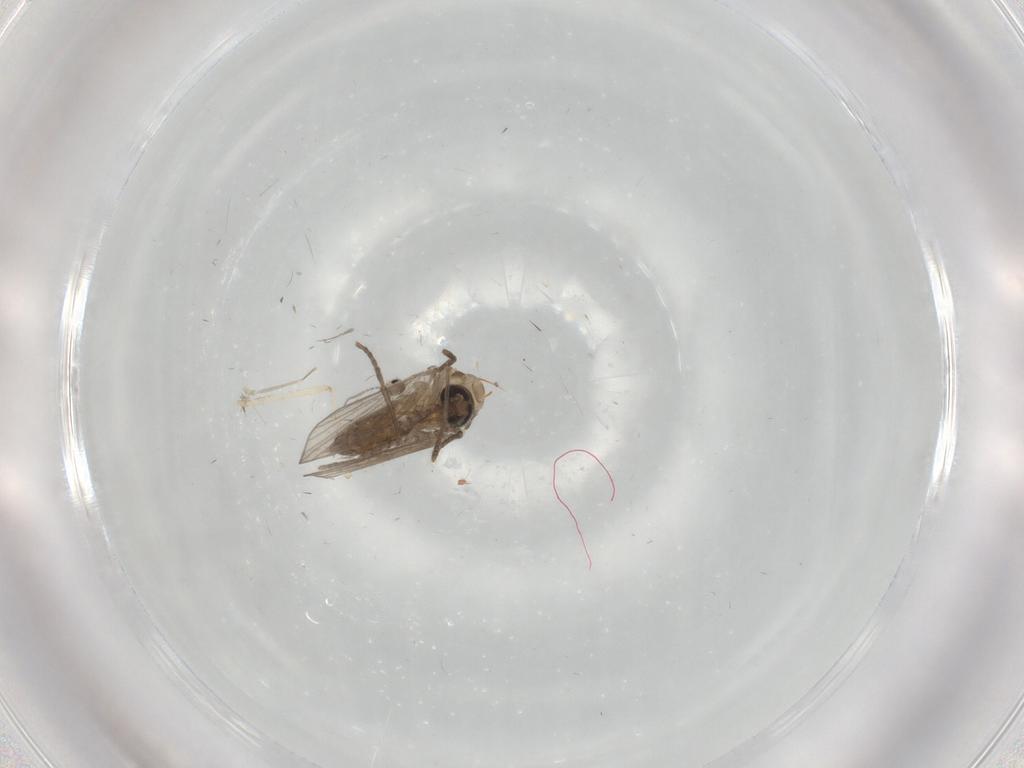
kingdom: Animalia
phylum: Arthropoda
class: Insecta
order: Diptera
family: Psychodidae
